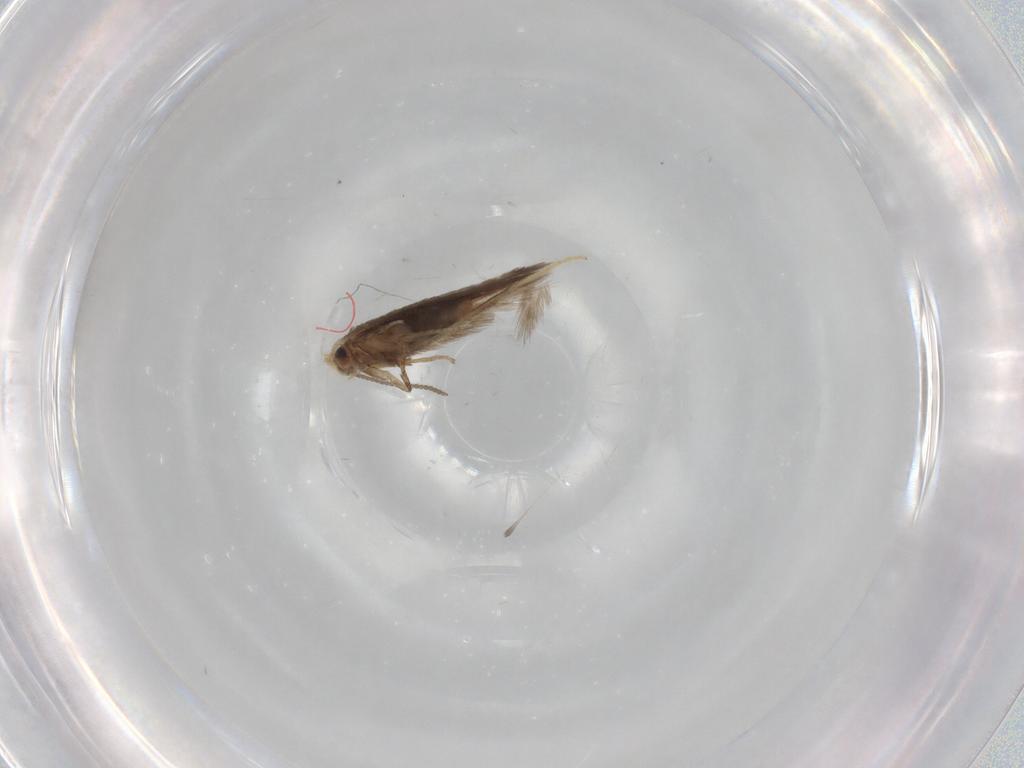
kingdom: Animalia
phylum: Arthropoda
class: Insecta
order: Lepidoptera
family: Nepticulidae
